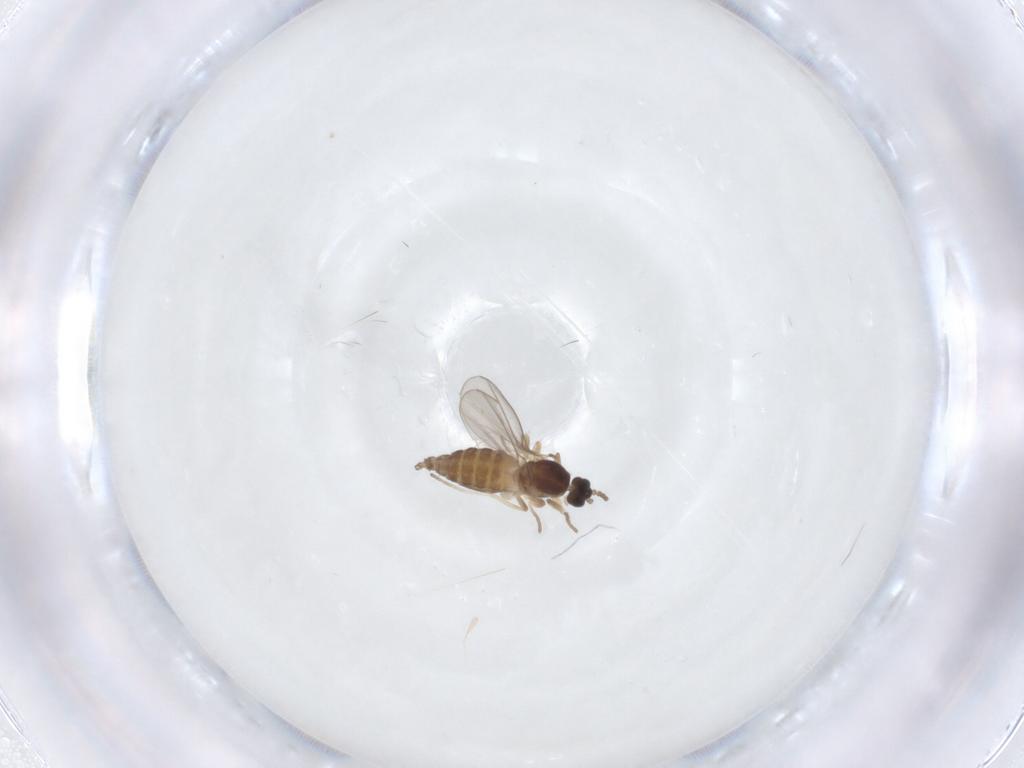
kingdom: Animalia
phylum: Arthropoda
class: Insecta
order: Diptera
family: Cecidomyiidae
